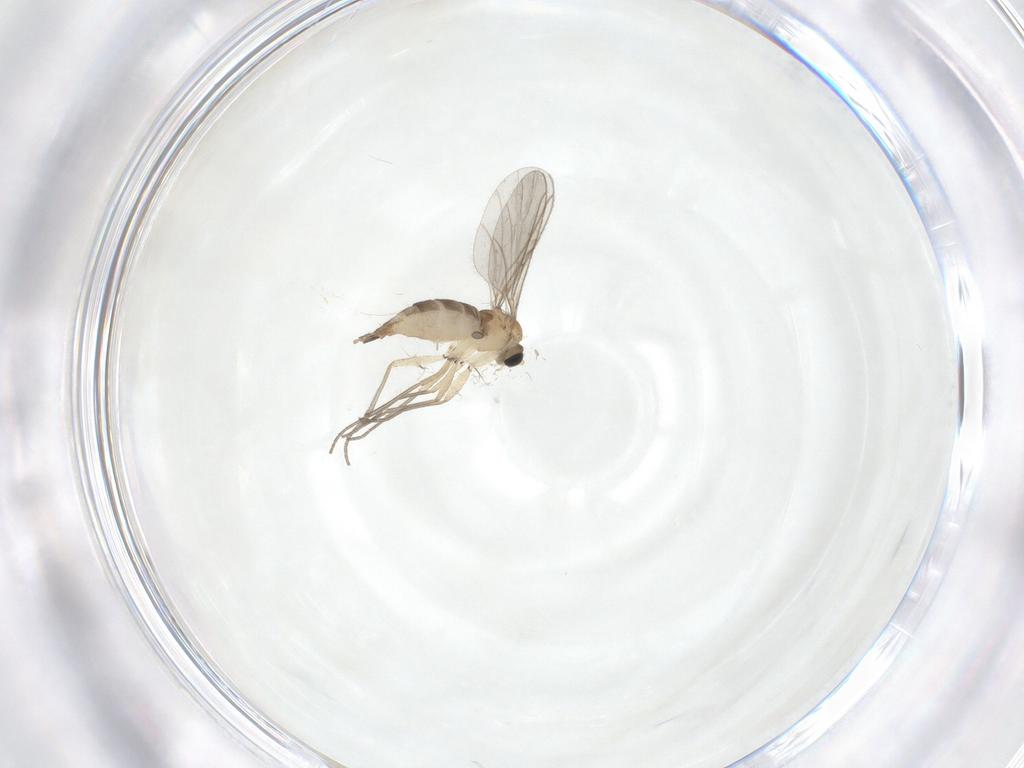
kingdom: Animalia
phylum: Arthropoda
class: Insecta
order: Diptera
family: Sciaridae
